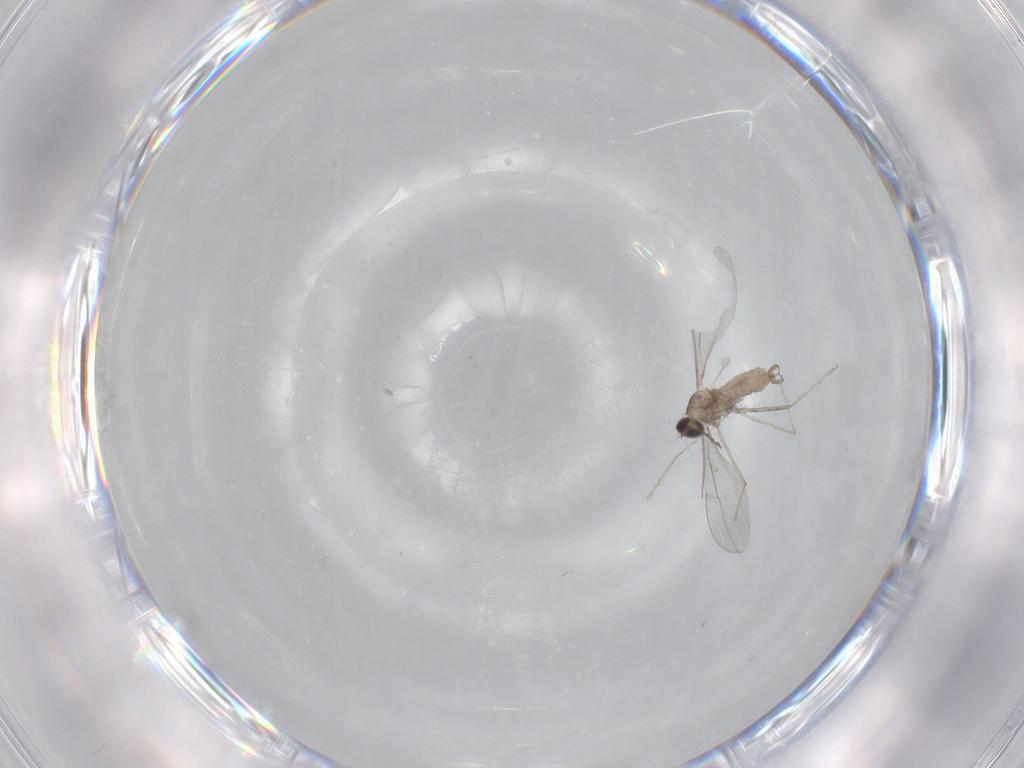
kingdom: Animalia
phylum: Arthropoda
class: Insecta
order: Diptera
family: Cecidomyiidae
